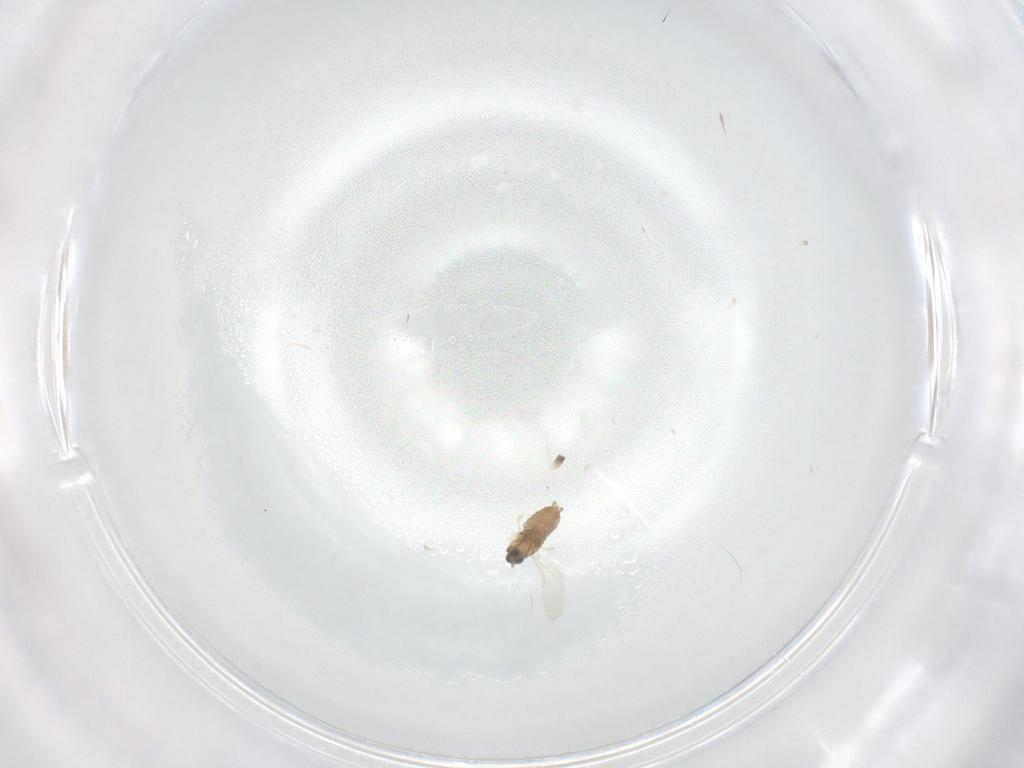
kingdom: Animalia
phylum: Arthropoda
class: Insecta
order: Diptera
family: Cecidomyiidae
